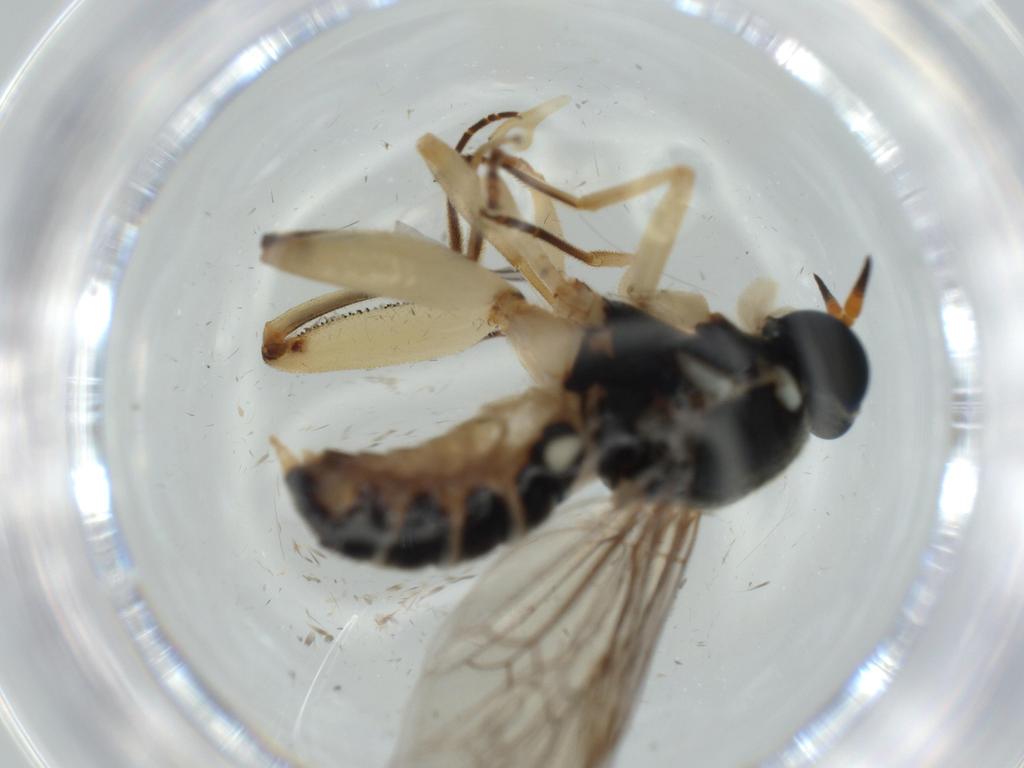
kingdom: Animalia
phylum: Arthropoda
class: Insecta
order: Diptera
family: Cecidomyiidae
